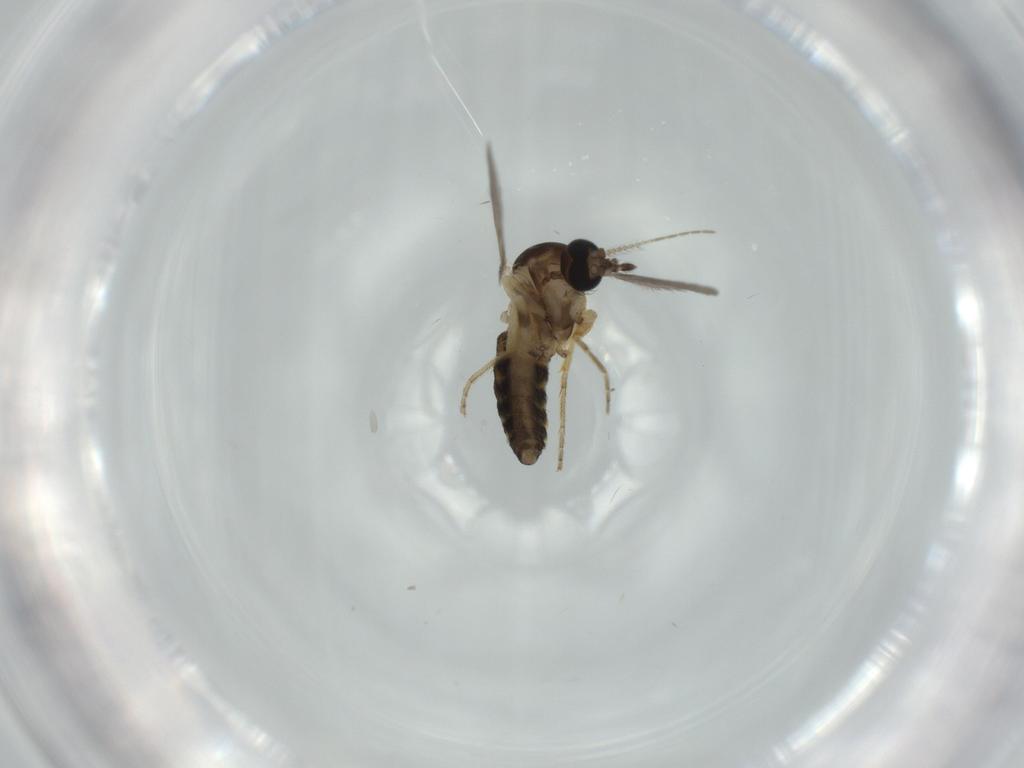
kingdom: Animalia
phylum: Arthropoda
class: Insecta
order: Diptera
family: Ceratopogonidae
